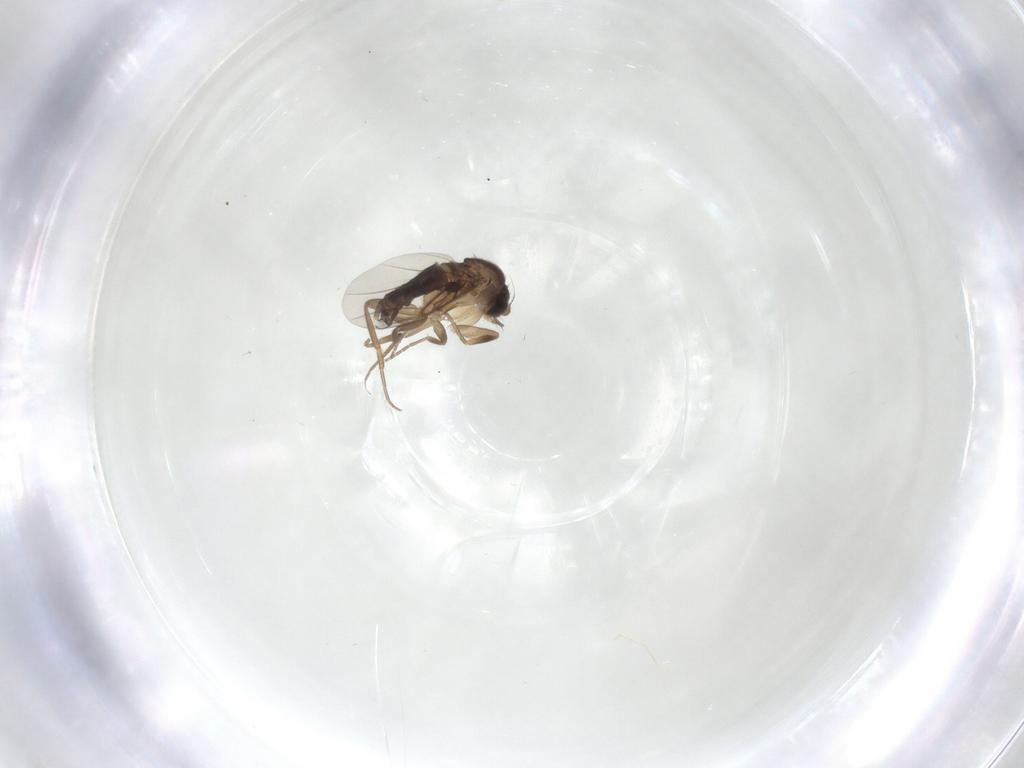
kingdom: Animalia
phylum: Arthropoda
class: Insecta
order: Diptera
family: Phoridae
